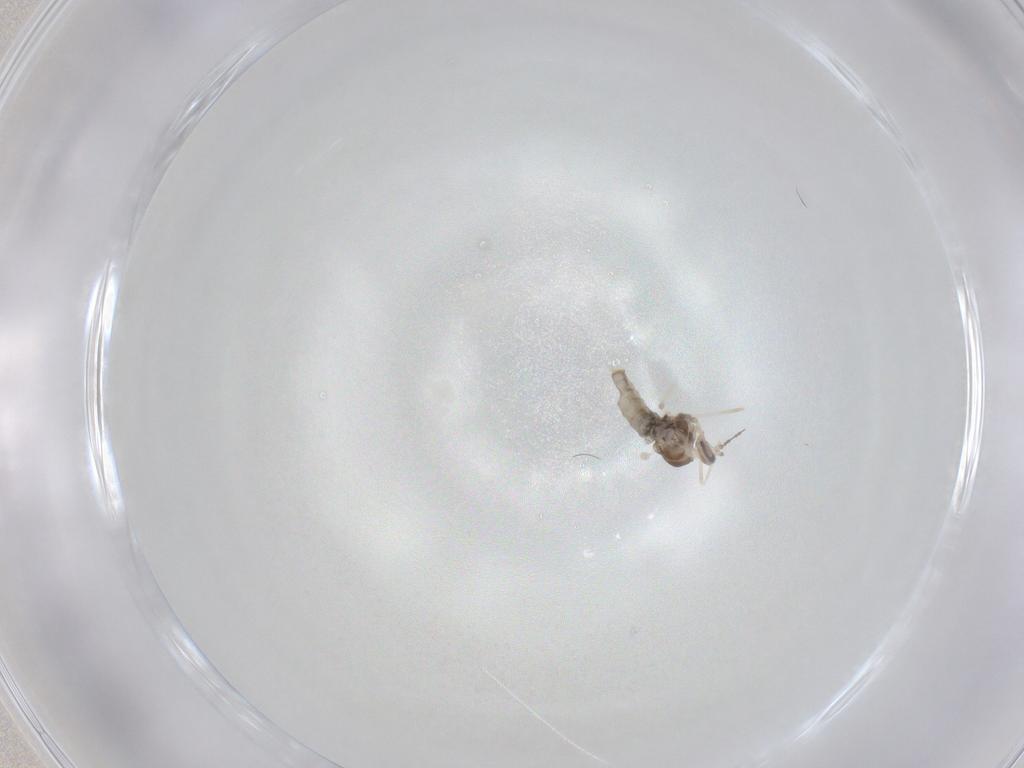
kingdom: Animalia
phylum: Arthropoda
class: Insecta
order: Diptera
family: Cecidomyiidae
